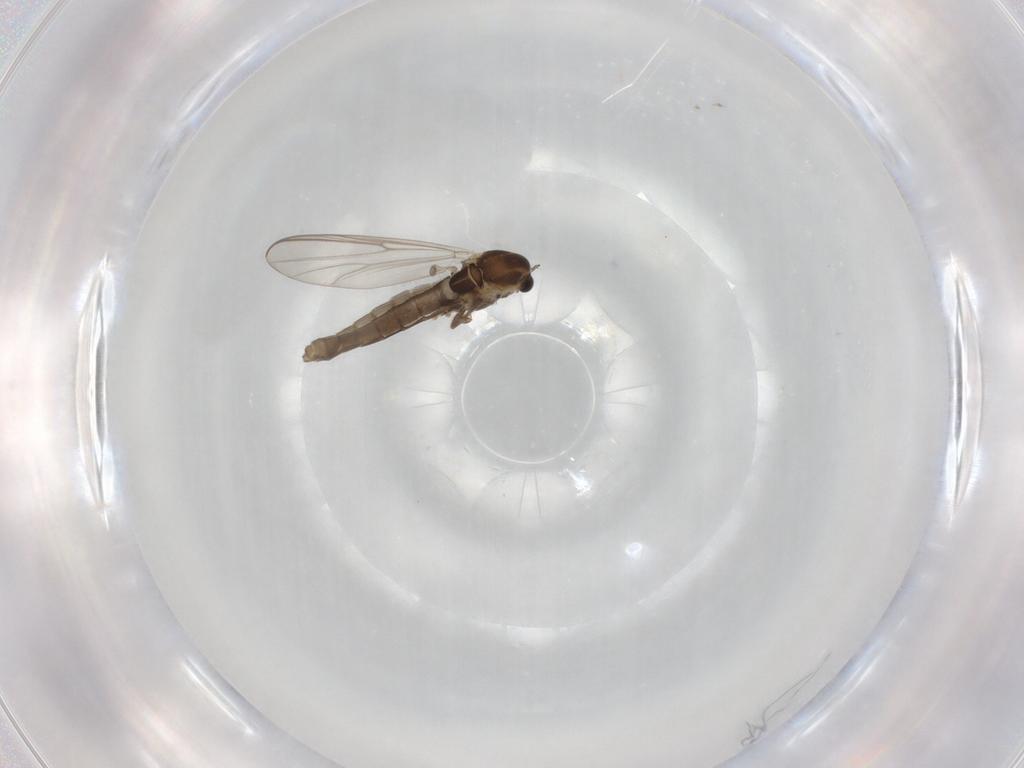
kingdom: Animalia
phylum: Arthropoda
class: Insecta
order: Diptera
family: Chironomidae
